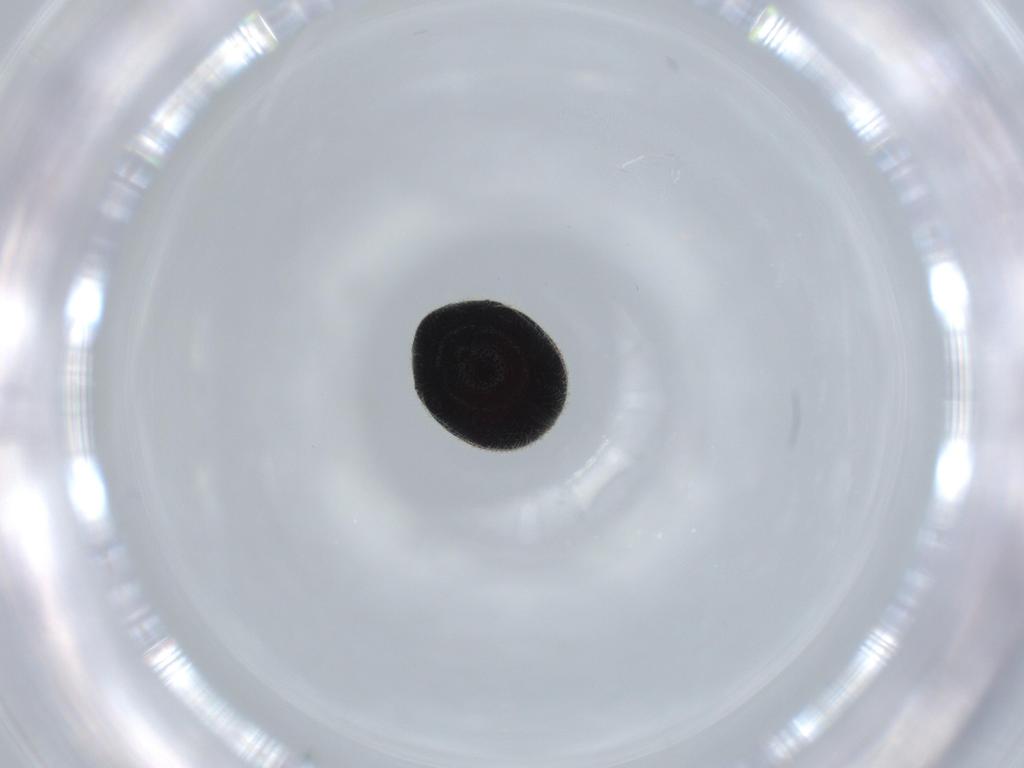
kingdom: Animalia
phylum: Arthropoda
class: Insecta
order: Coleoptera
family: Ptinidae
